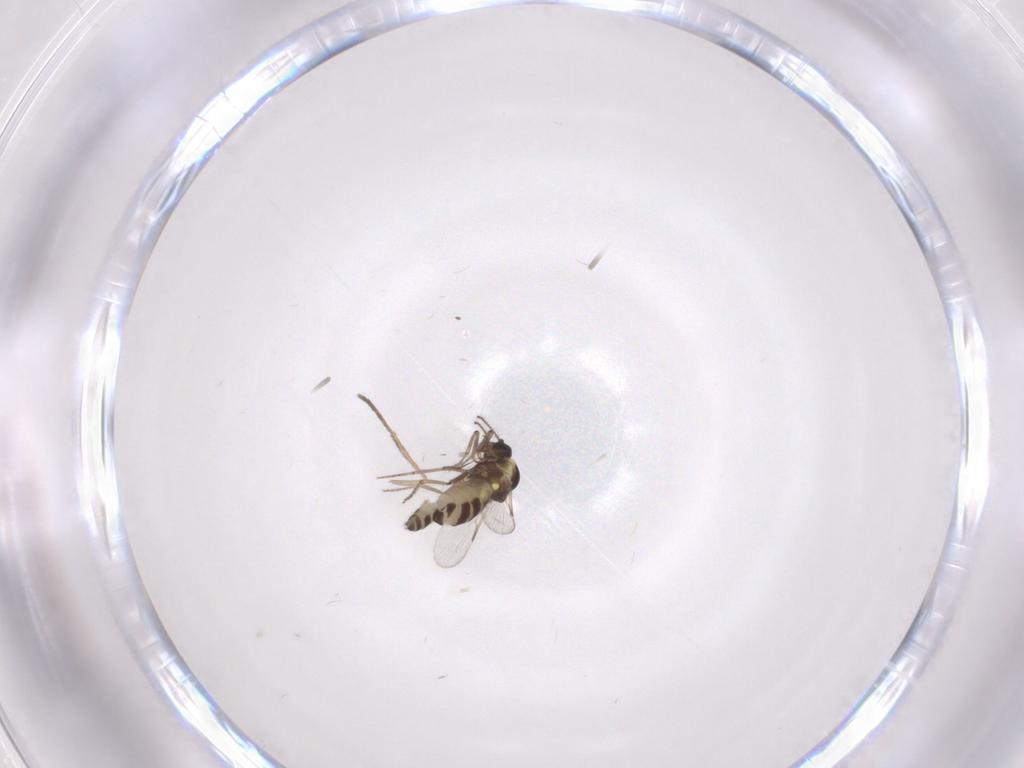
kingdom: Animalia
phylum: Arthropoda
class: Insecta
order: Diptera
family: Ceratopogonidae
